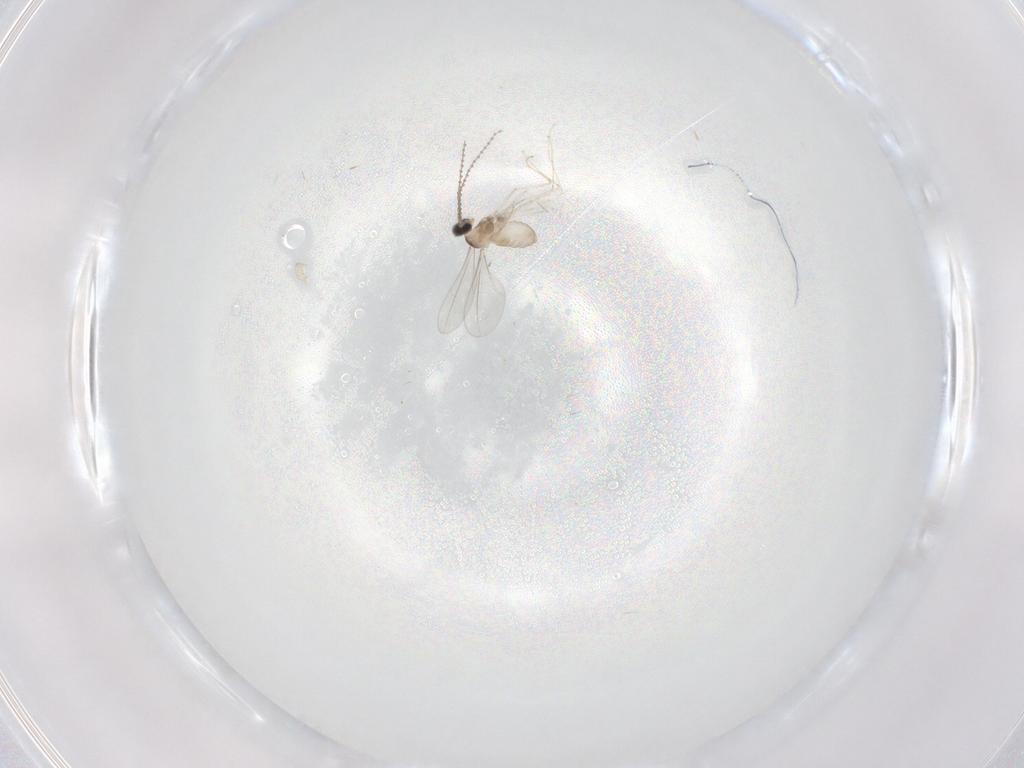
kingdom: Animalia
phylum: Arthropoda
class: Insecta
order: Diptera
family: Cecidomyiidae
